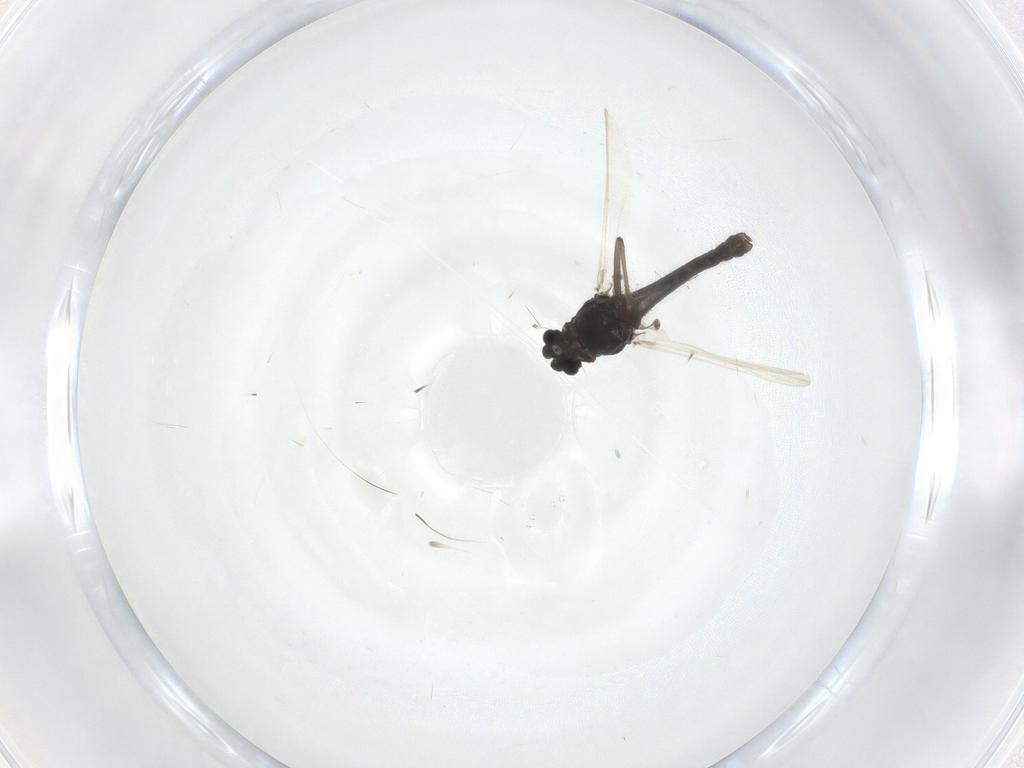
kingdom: Animalia
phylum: Arthropoda
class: Insecta
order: Diptera
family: Chironomidae
